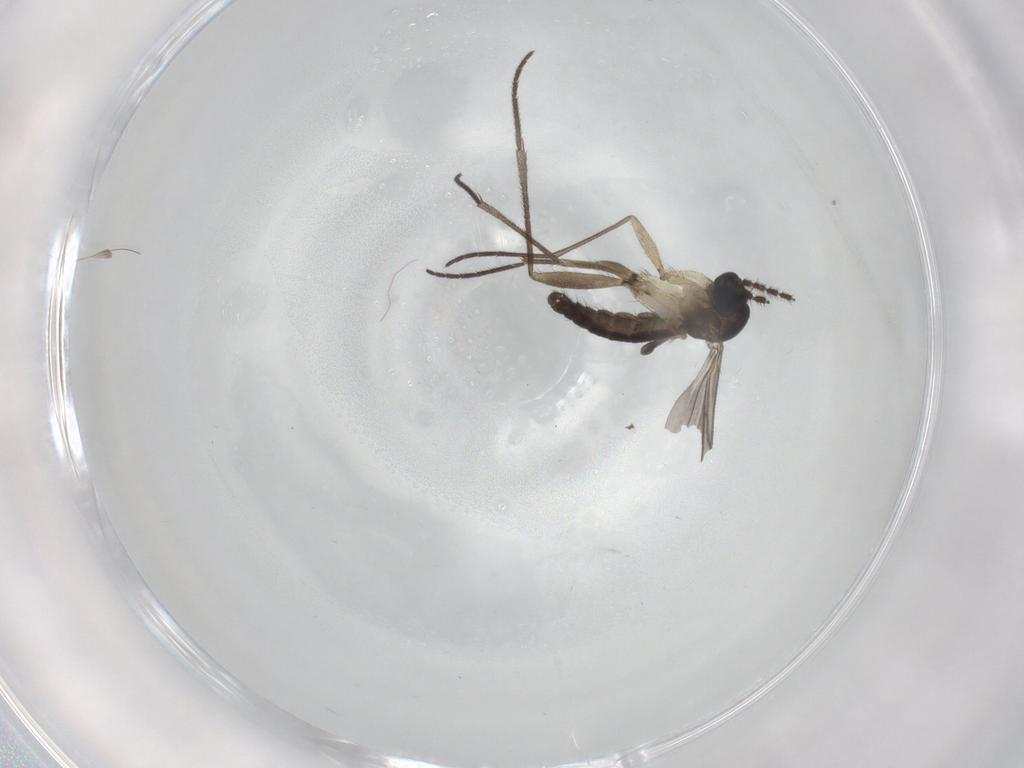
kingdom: Animalia
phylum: Arthropoda
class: Insecta
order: Diptera
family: Sciaridae
